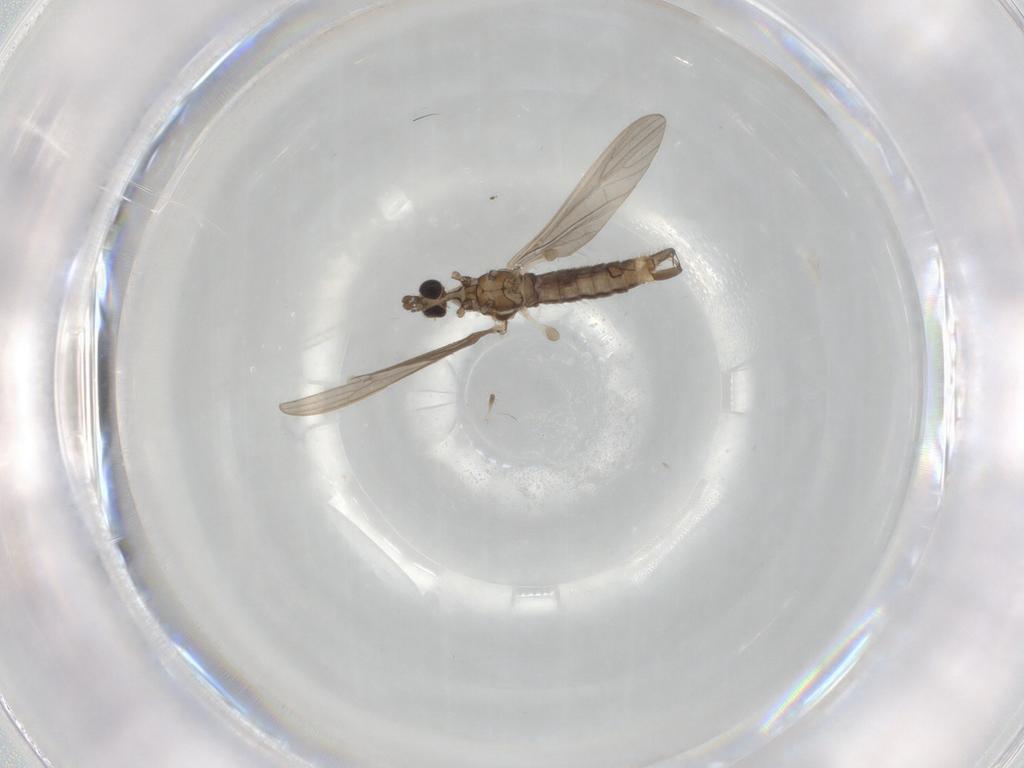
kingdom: Animalia
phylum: Arthropoda
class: Insecta
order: Diptera
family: Limoniidae
